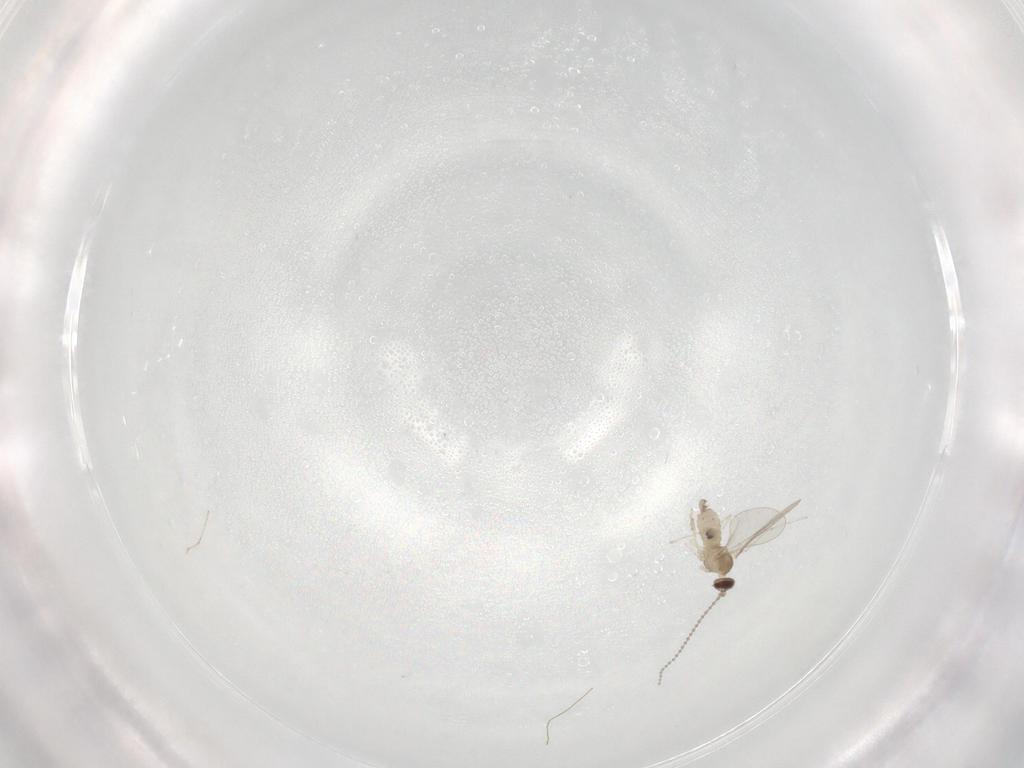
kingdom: Animalia
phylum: Arthropoda
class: Insecta
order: Diptera
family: Cecidomyiidae
